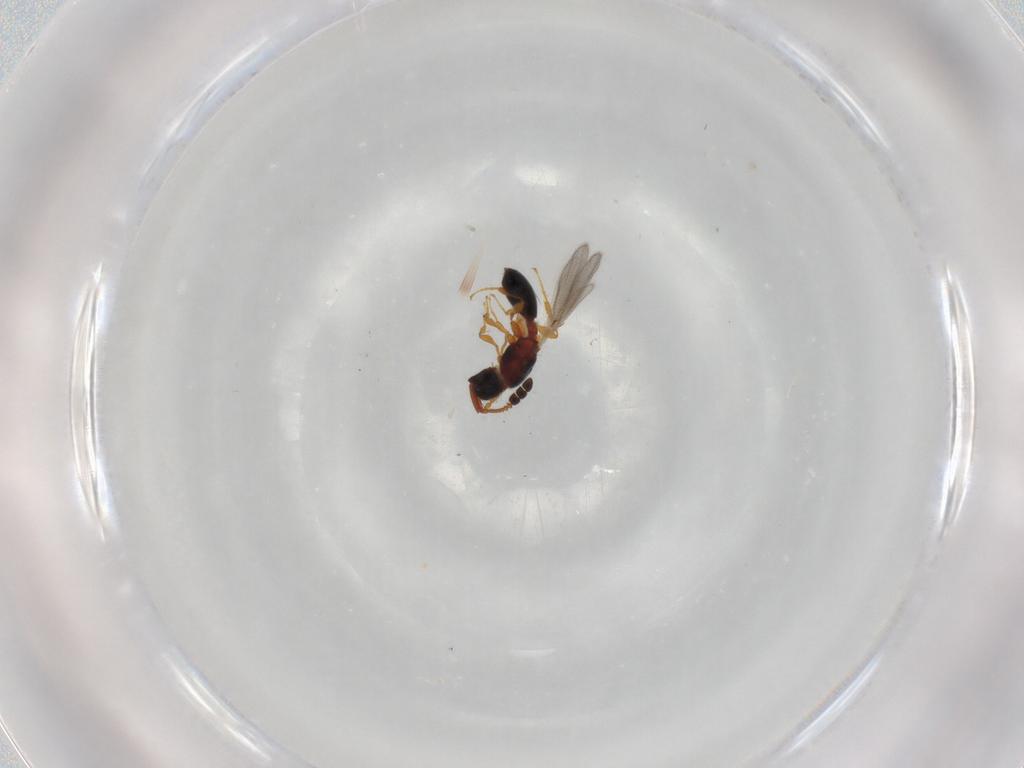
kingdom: Animalia
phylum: Arthropoda
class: Insecta
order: Hymenoptera
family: Diapriidae
